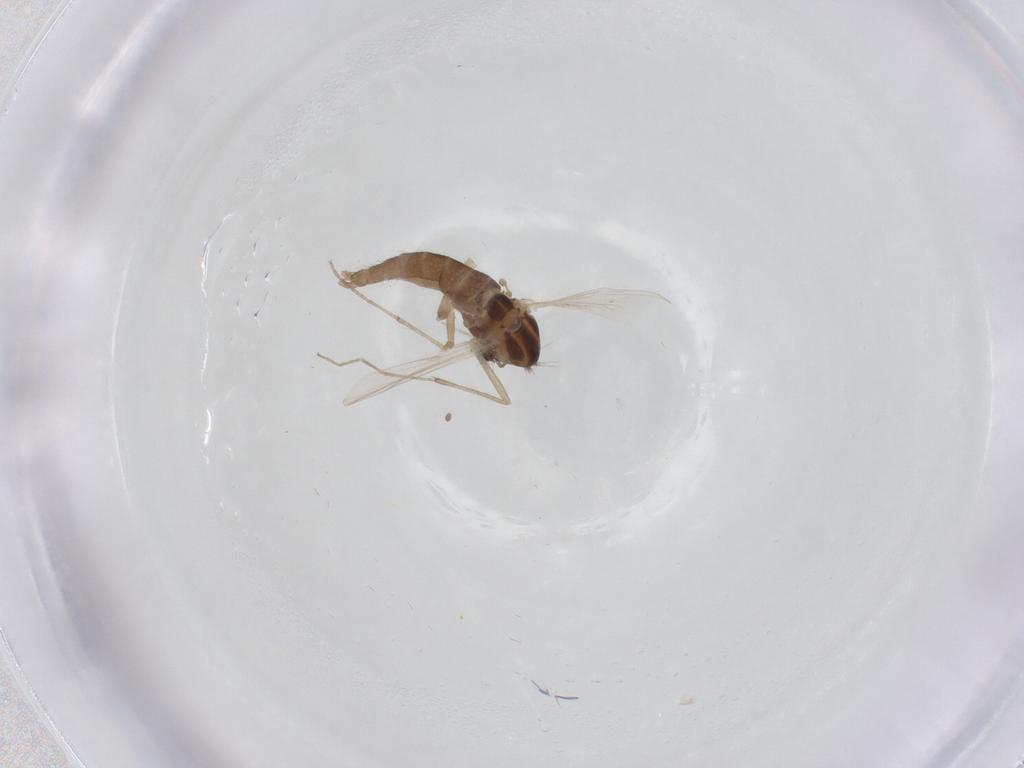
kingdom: Animalia
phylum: Arthropoda
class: Insecta
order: Diptera
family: Chironomidae
